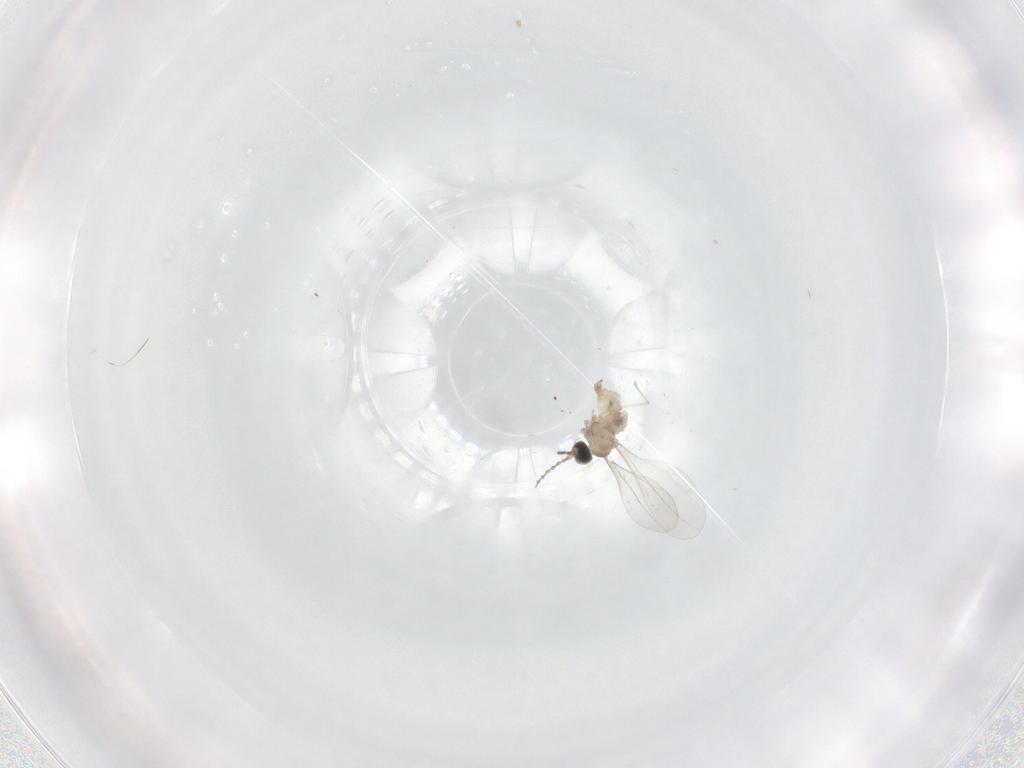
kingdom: Animalia
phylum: Arthropoda
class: Insecta
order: Diptera
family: Cecidomyiidae
